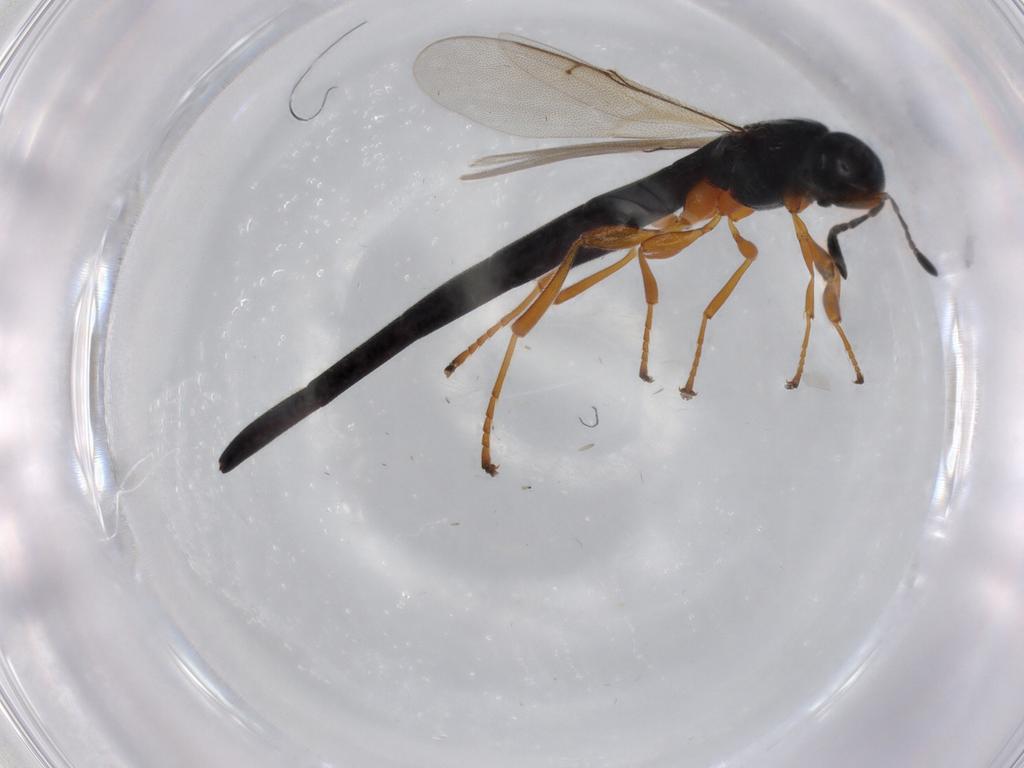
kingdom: Animalia
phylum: Arthropoda
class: Insecta
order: Hymenoptera
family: Scelionidae
